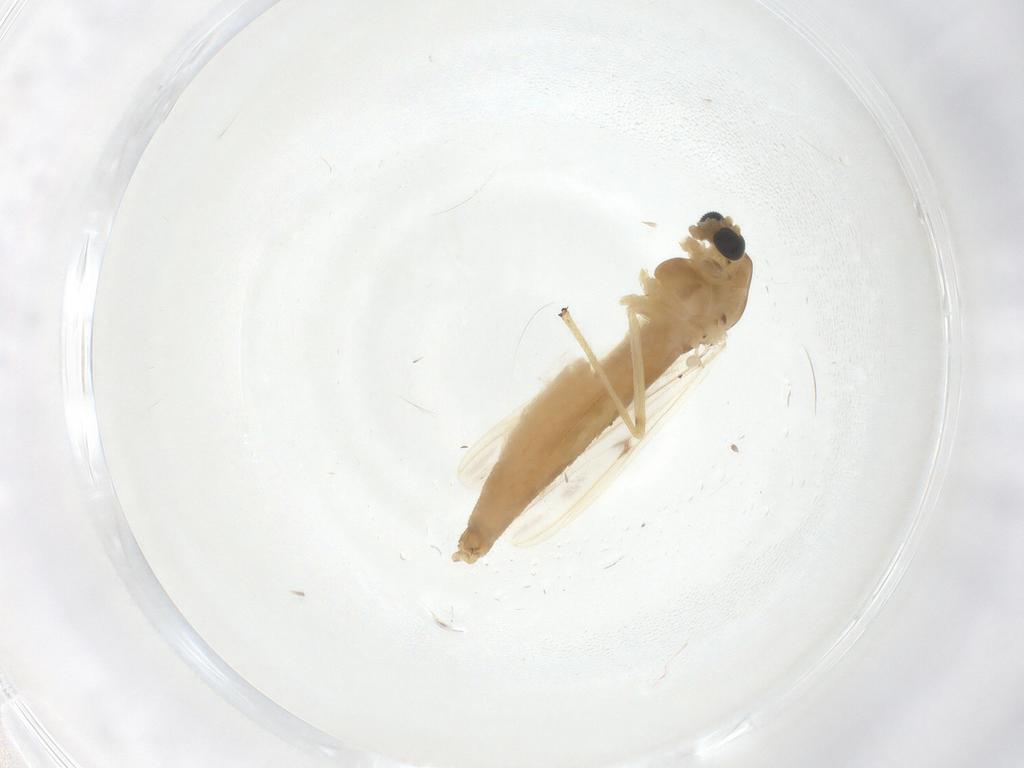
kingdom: Animalia
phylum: Arthropoda
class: Insecta
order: Diptera
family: Chironomidae
